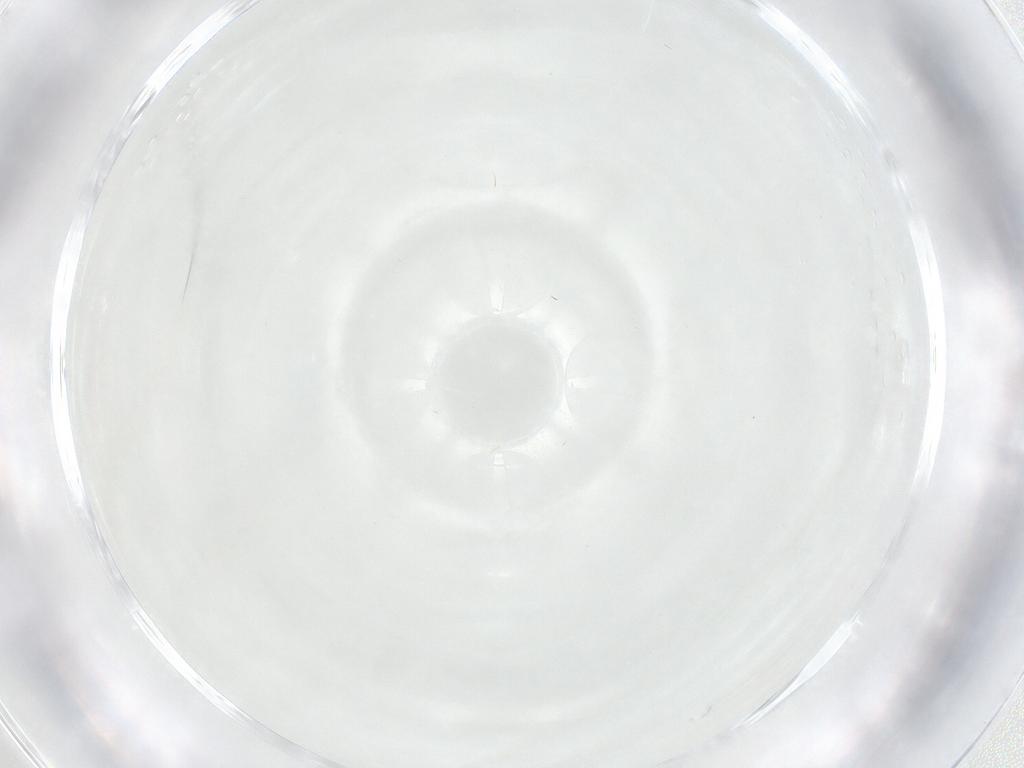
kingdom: Animalia
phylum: Arthropoda
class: Insecta
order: Diptera
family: Sciaridae
